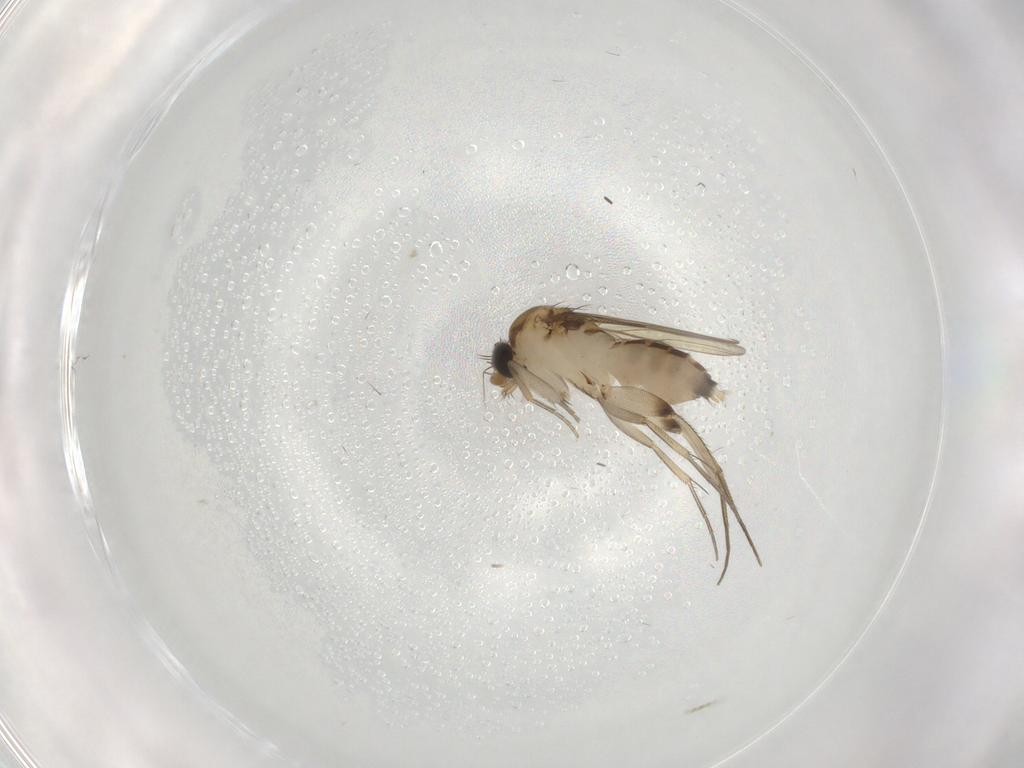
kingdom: Animalia
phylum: Arthropoda
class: Insecta
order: Diptera
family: Phoridae
